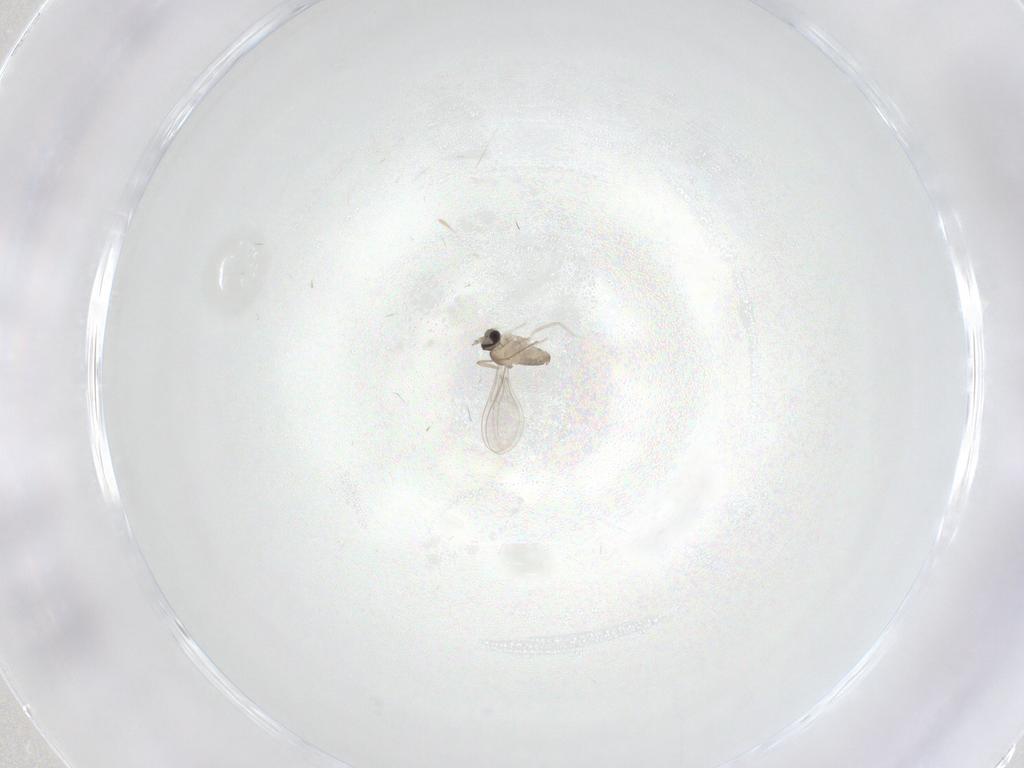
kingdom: Animalia
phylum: Arthropoda
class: Insecta
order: Diptera
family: Cecidomyiidae
